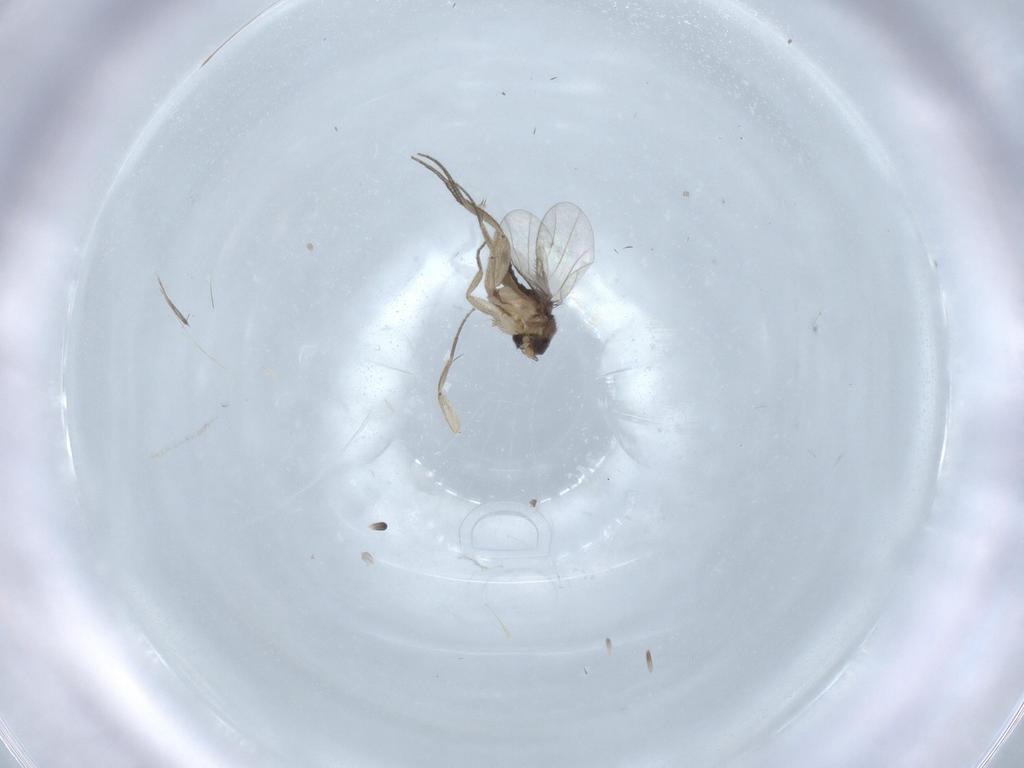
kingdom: Animalia
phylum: Arthropoda
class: Insecta
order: Diptera
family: Phoridae
